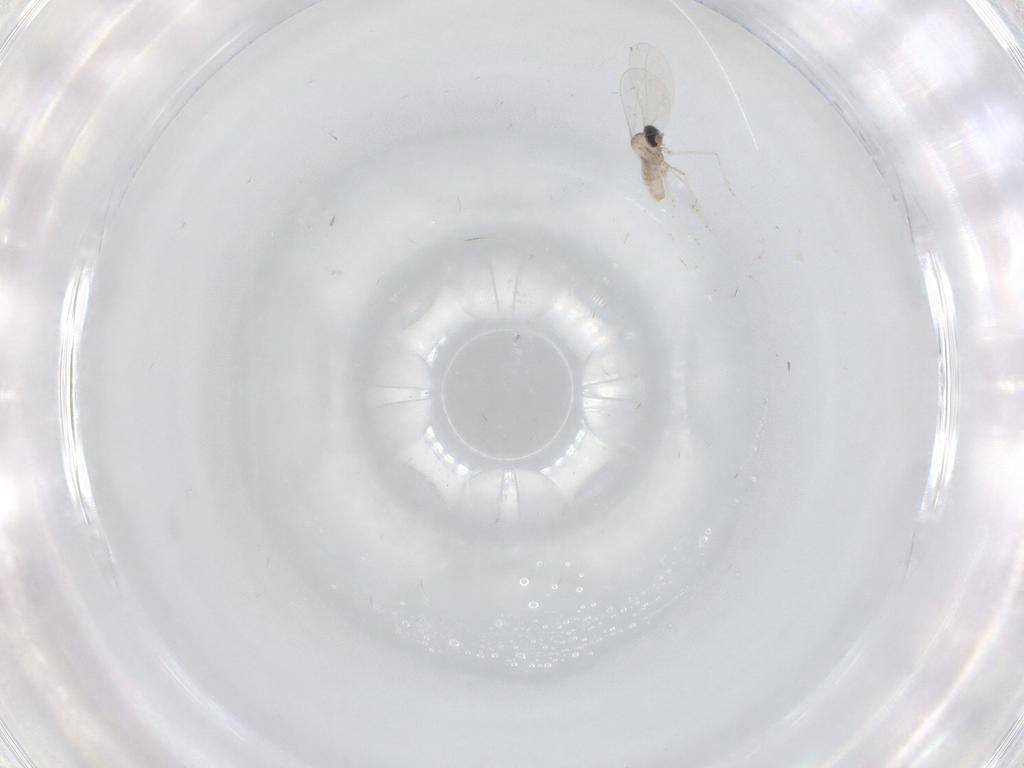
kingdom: Animalia
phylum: Arthropoda
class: Insecta
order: Diptera
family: Cecidomyiidae
